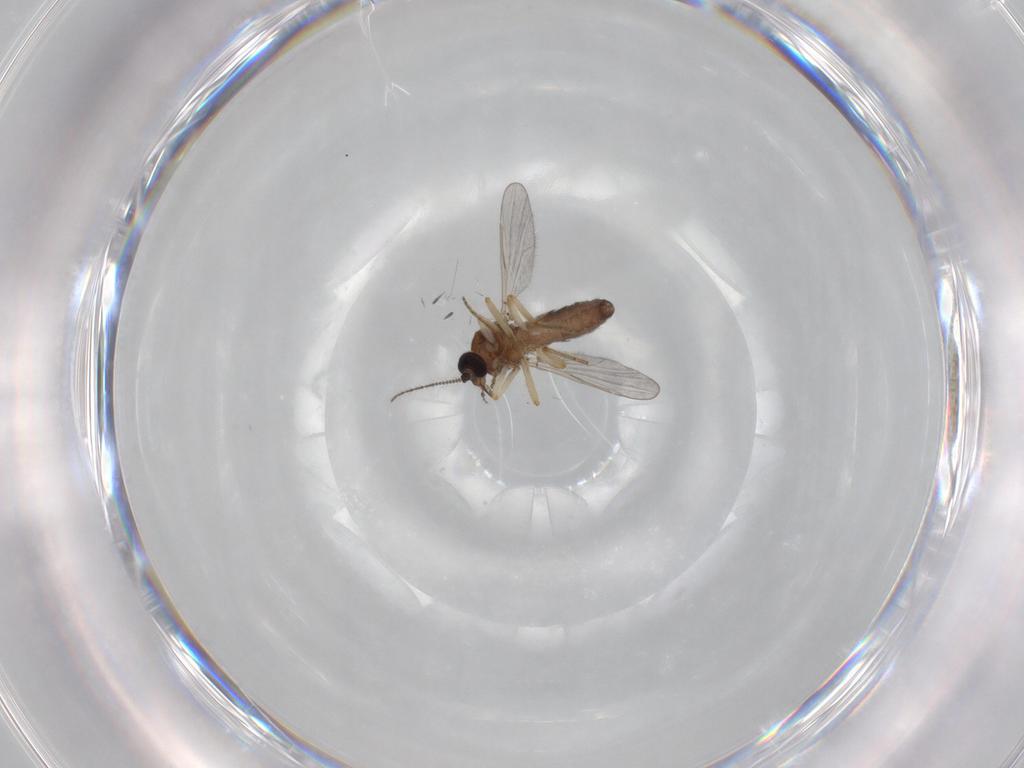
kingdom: Animalia
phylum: Arthropoda
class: Insecta
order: Diptera
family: Ceratopogonidae
